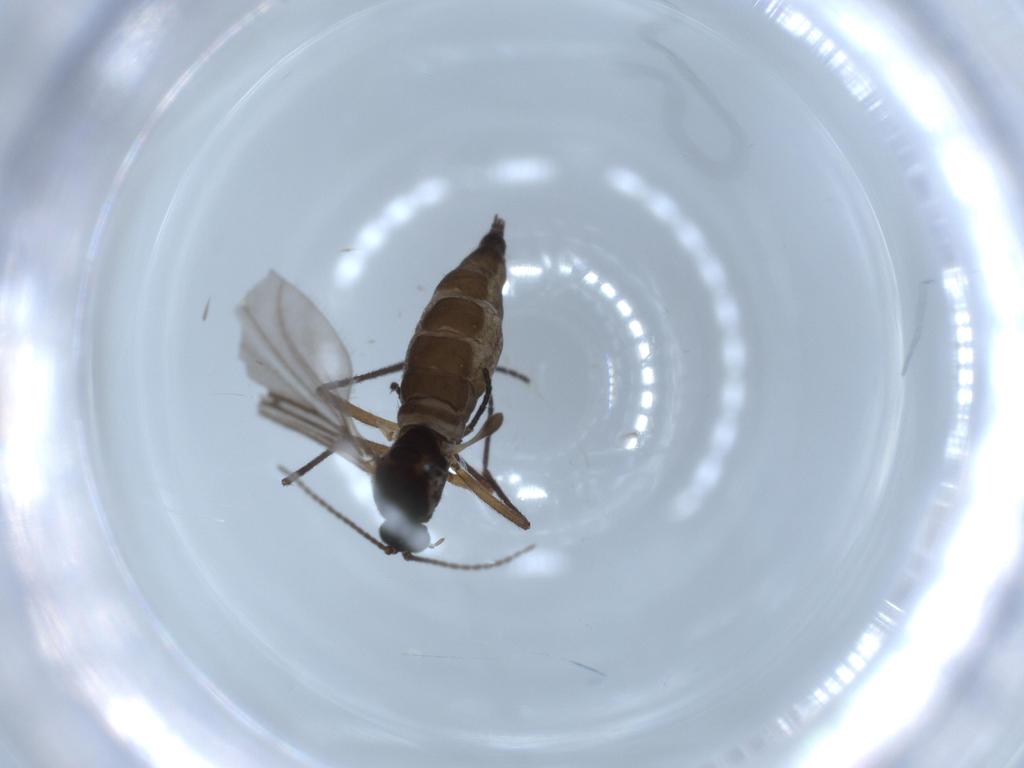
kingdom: Animalia
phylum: Arthropoda
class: Insecta
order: Diptera
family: Sciaridae
